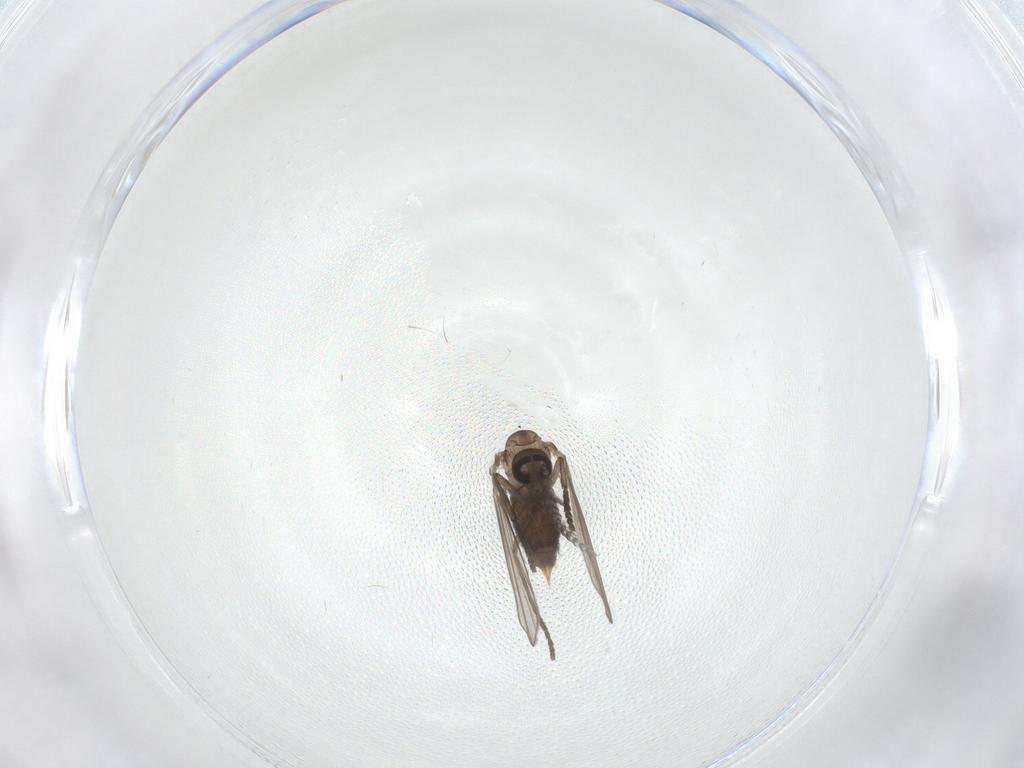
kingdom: Animalia
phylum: Arthropoda
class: Insecta
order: Diptera
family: Psychodidae
